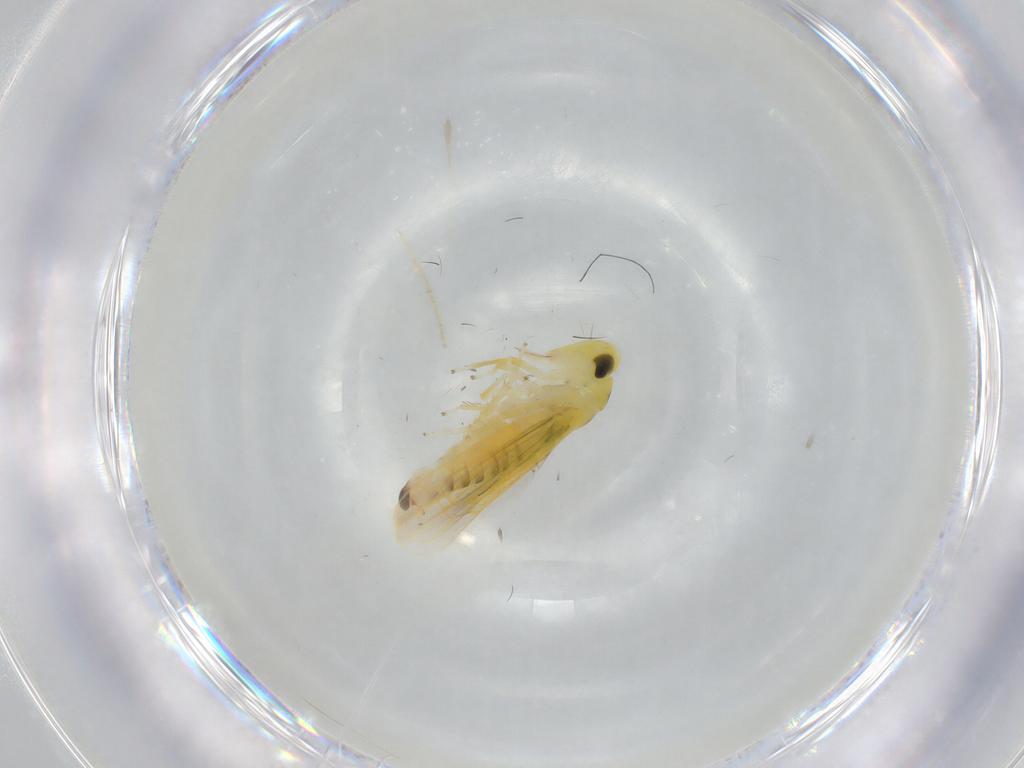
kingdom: Animalia
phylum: Arthropoda
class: Insecta
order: Hemiptera
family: Cicadellidae
